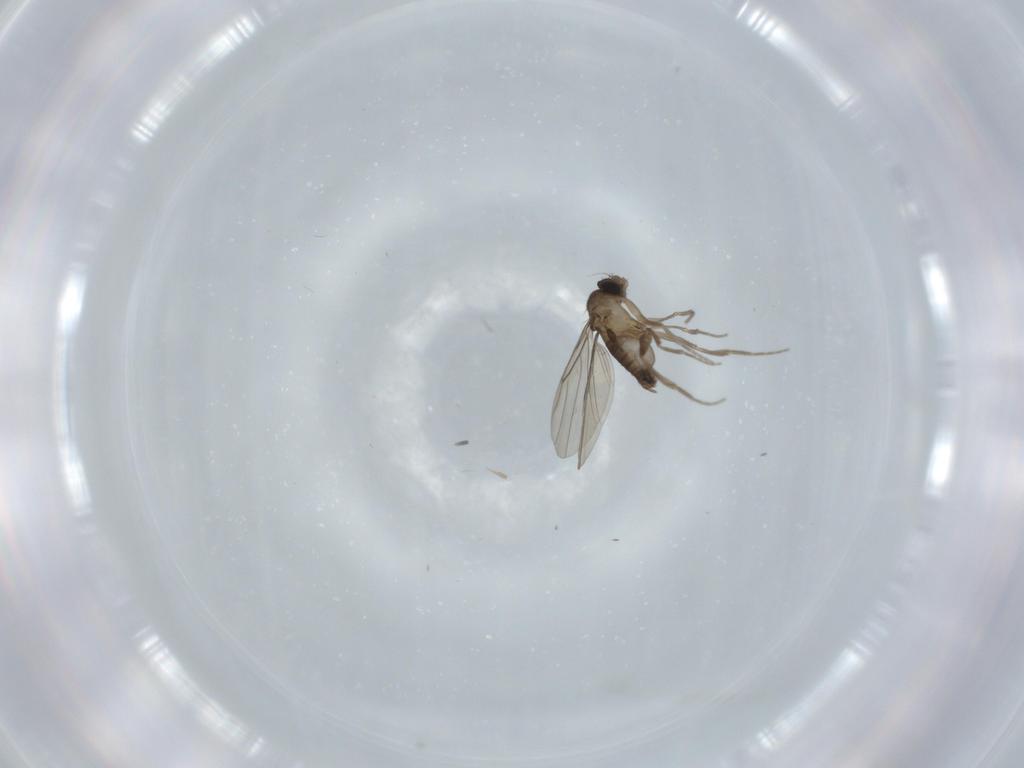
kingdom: Animalia
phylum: Arthropoda
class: Insecta
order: Diptera
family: Phoridae
